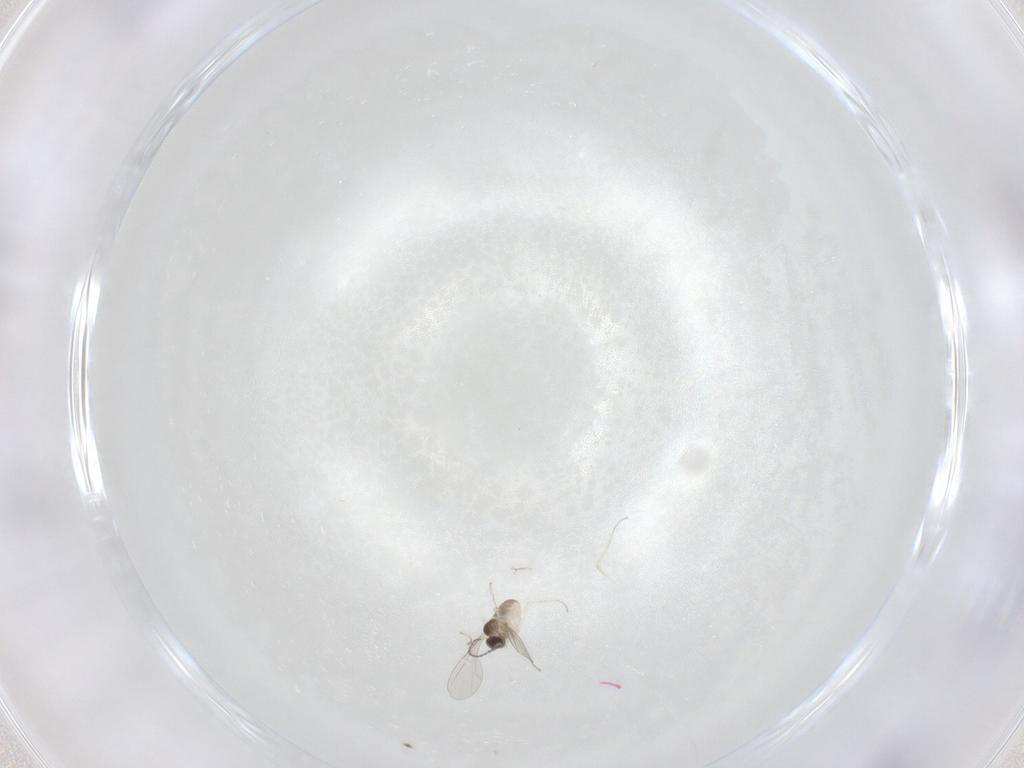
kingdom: Animalia
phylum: Arthropoda
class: Insecta
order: Diptera
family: Cecidomyiidae
